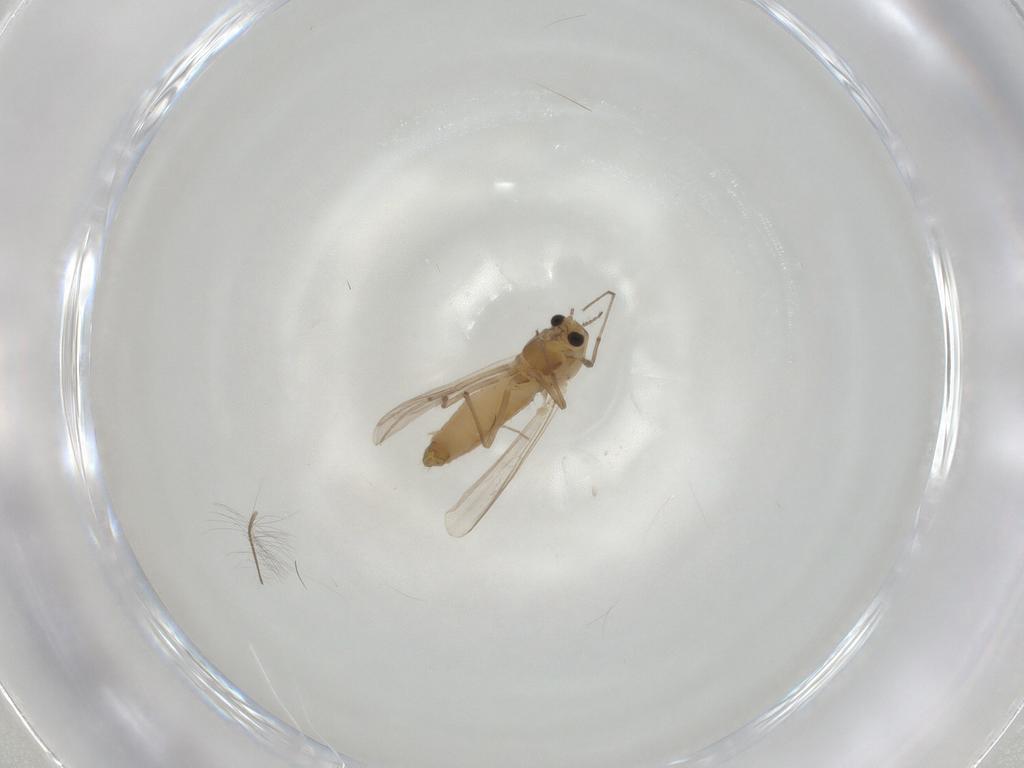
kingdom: Animalia
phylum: Arthropoda
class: Insecta
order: Diptera
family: Chironomidae
